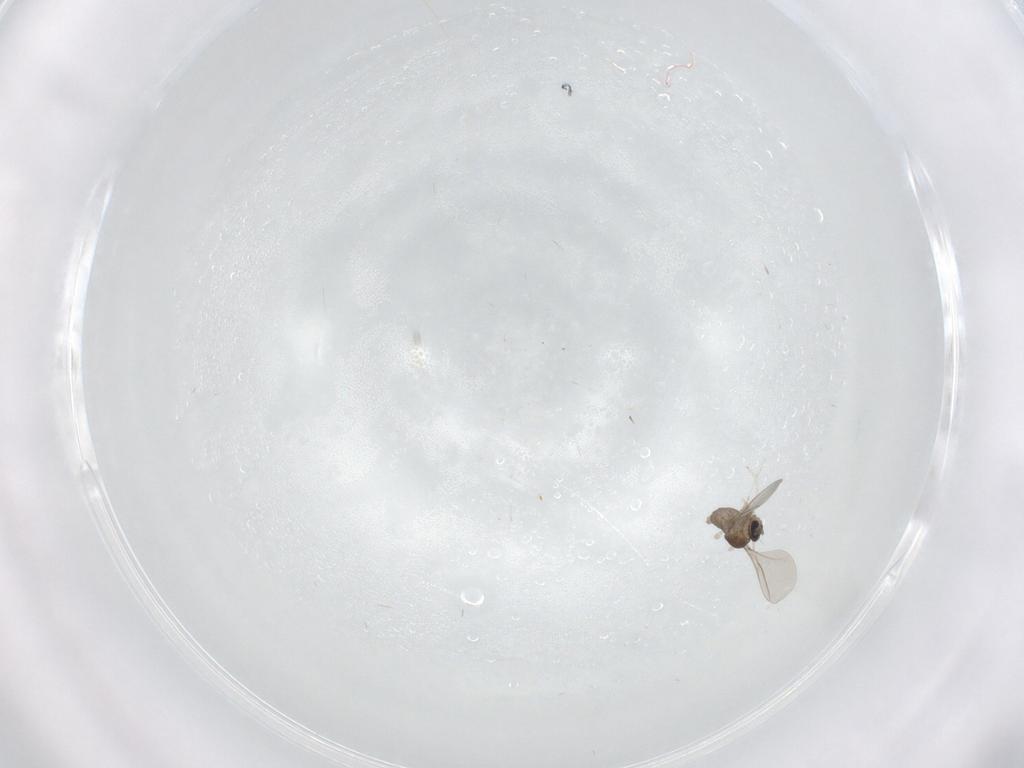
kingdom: Animalia
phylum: Arthropoda
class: Insecta
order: Diptera
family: Cecidomyiidae
